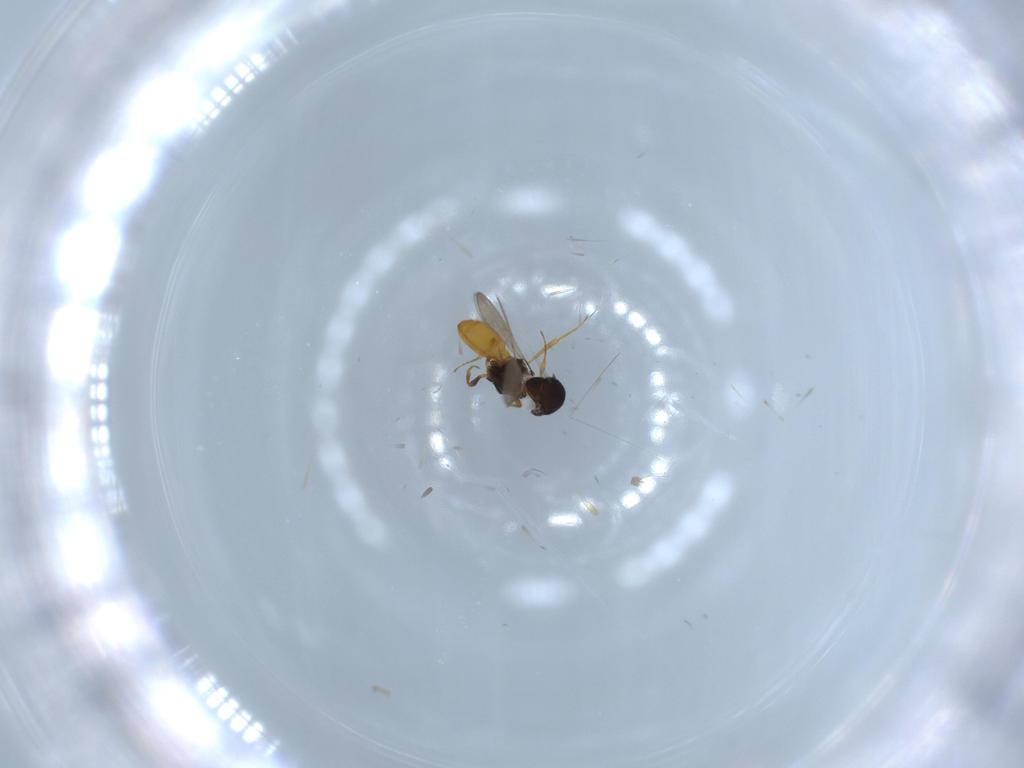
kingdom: Animalia
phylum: Arthropoda
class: Insecta
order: Hymenoptera
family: Scelionidae
